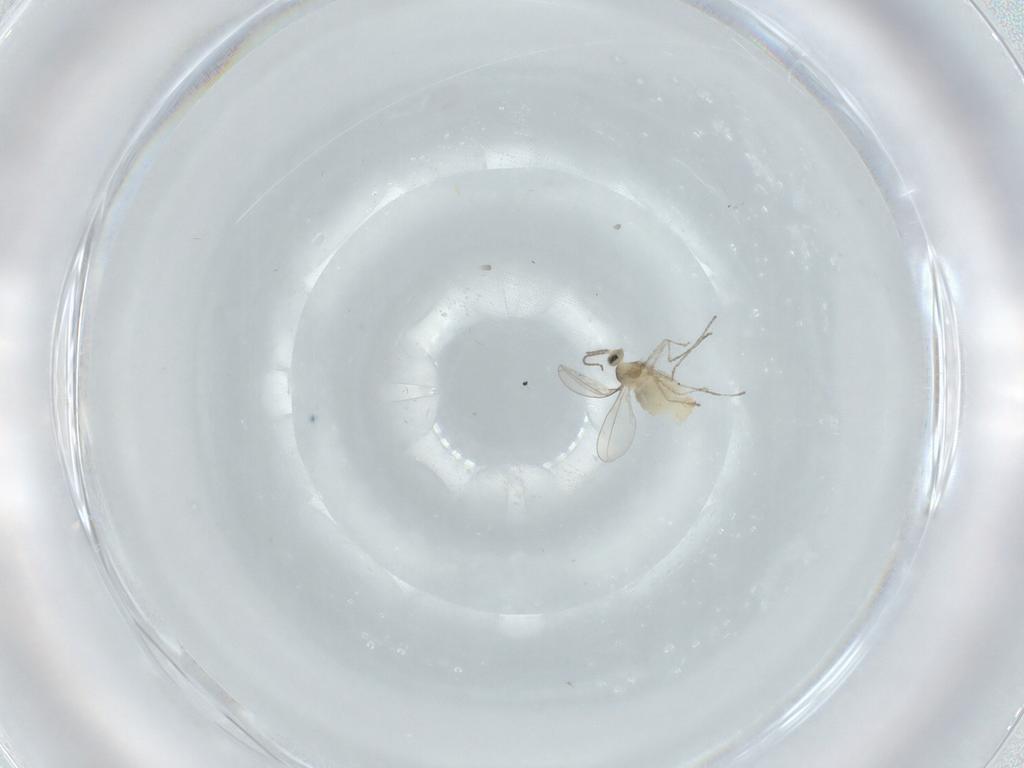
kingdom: Animalia
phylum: Arthropoda
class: Insecta
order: Diptera
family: Cecidomyiidae
